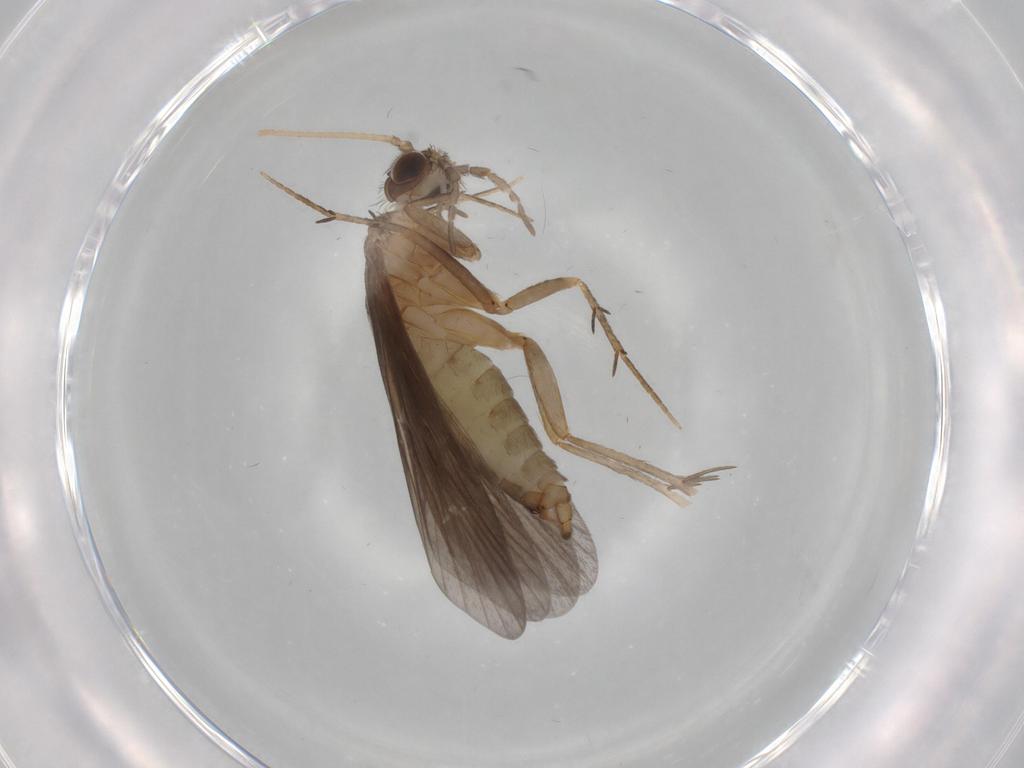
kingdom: Animalia
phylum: Arthropoda
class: Insecta
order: Trichoptera
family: Philopotamidae
